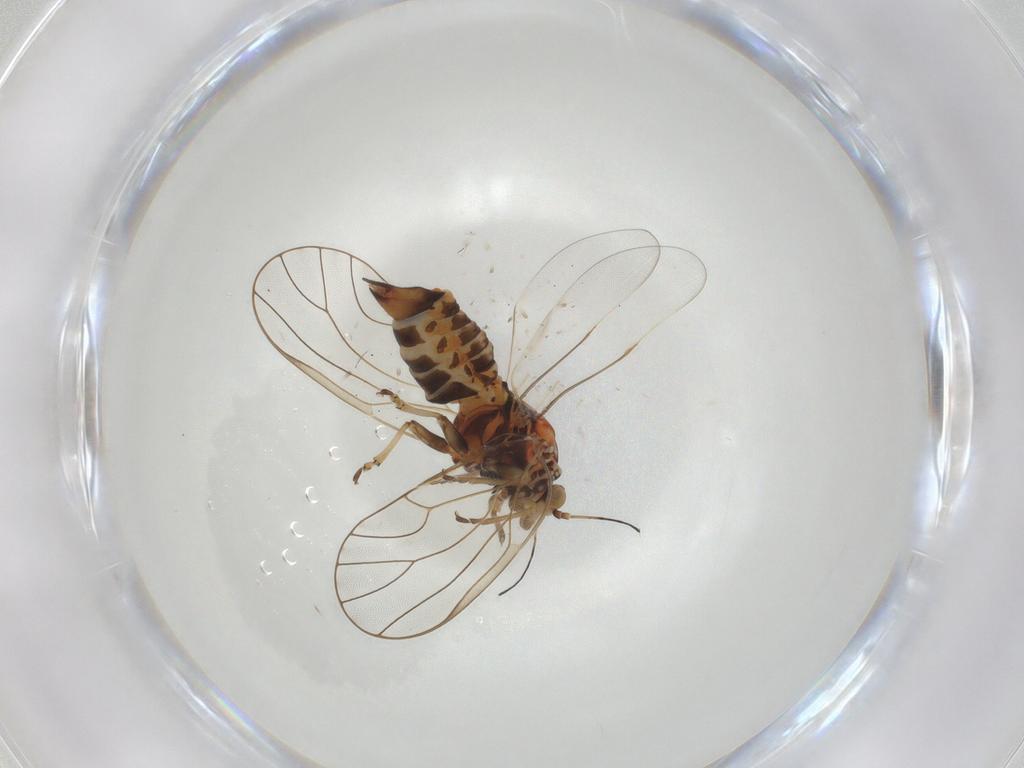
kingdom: Animalia
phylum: Arthropoda
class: Insecta
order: Hemiptera
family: Psyllidae
